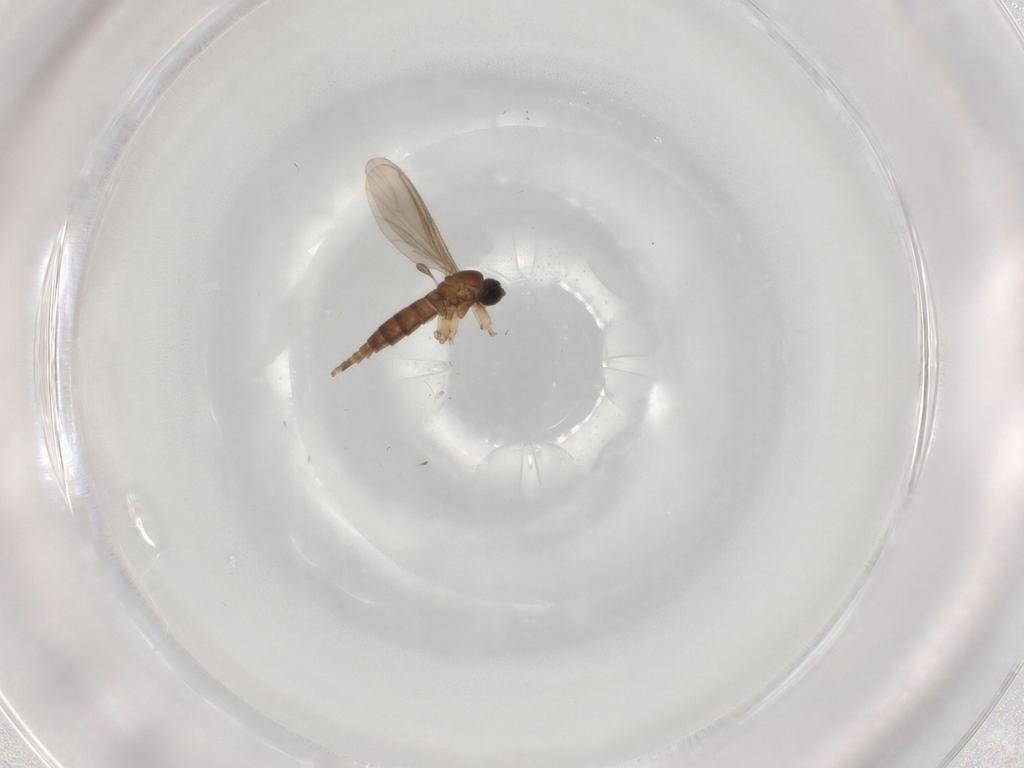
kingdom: Animalia
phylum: Arthropoda
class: Insecta
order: Diptera
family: Sciaridae
